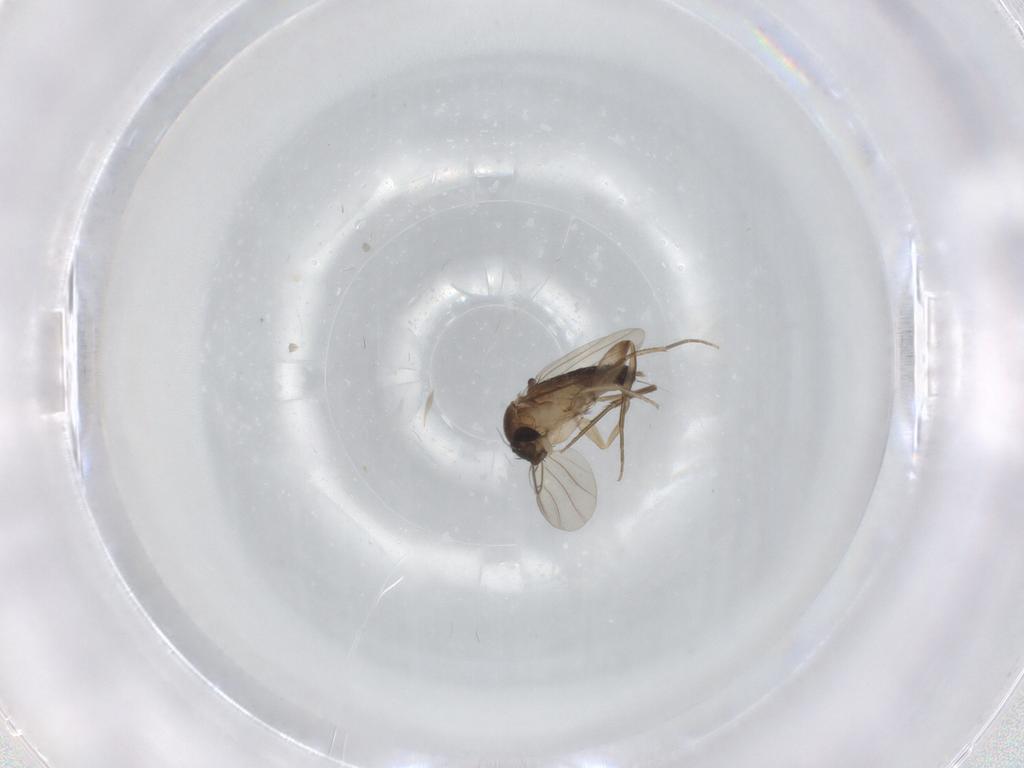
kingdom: Animalia
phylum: Arthropoda
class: Insecta
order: Diptera
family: Phoridae
